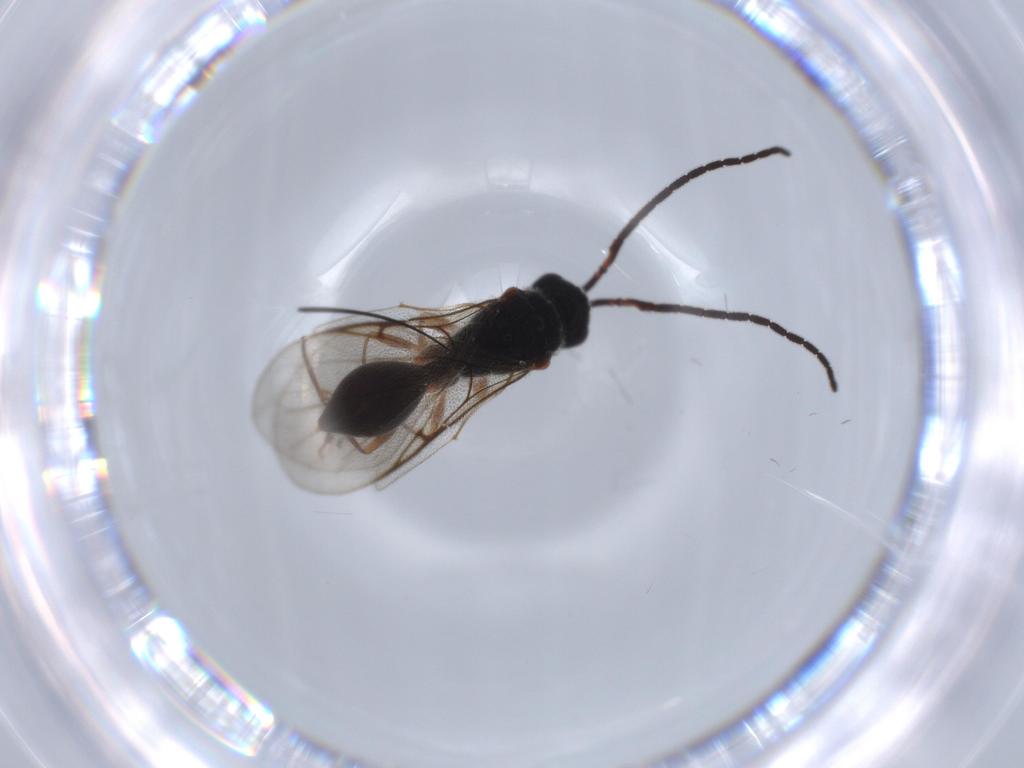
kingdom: Animalia
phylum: Arthropoda
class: Insecta
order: Hymenoptera
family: Diapriidae
